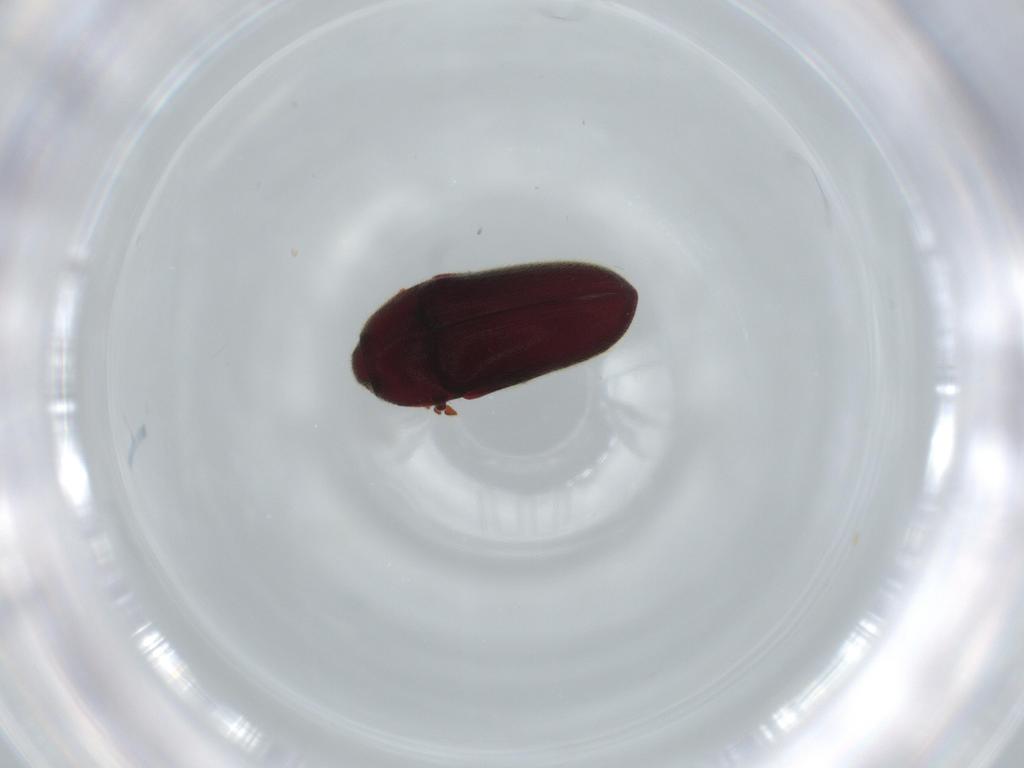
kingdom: Animalia
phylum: Arthropoda
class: Insecta
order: Coleoptera
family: Throscidae
